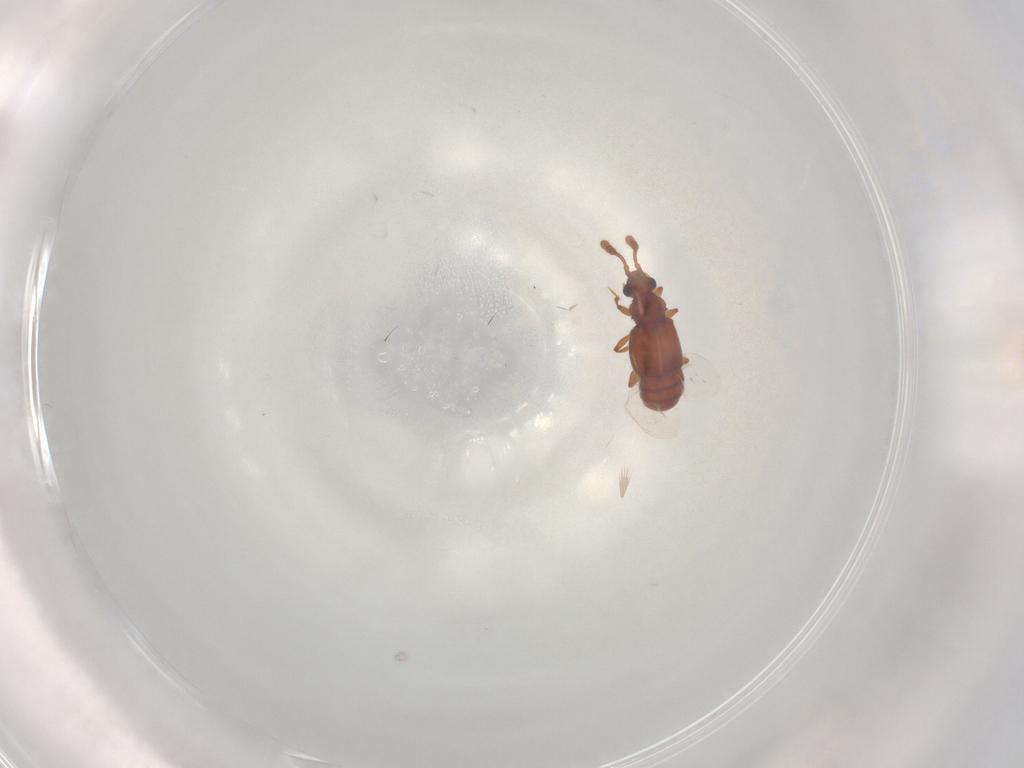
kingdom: Animalia
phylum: Arthropoda
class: Insecta
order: Coleoptera
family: Staphylinidae
